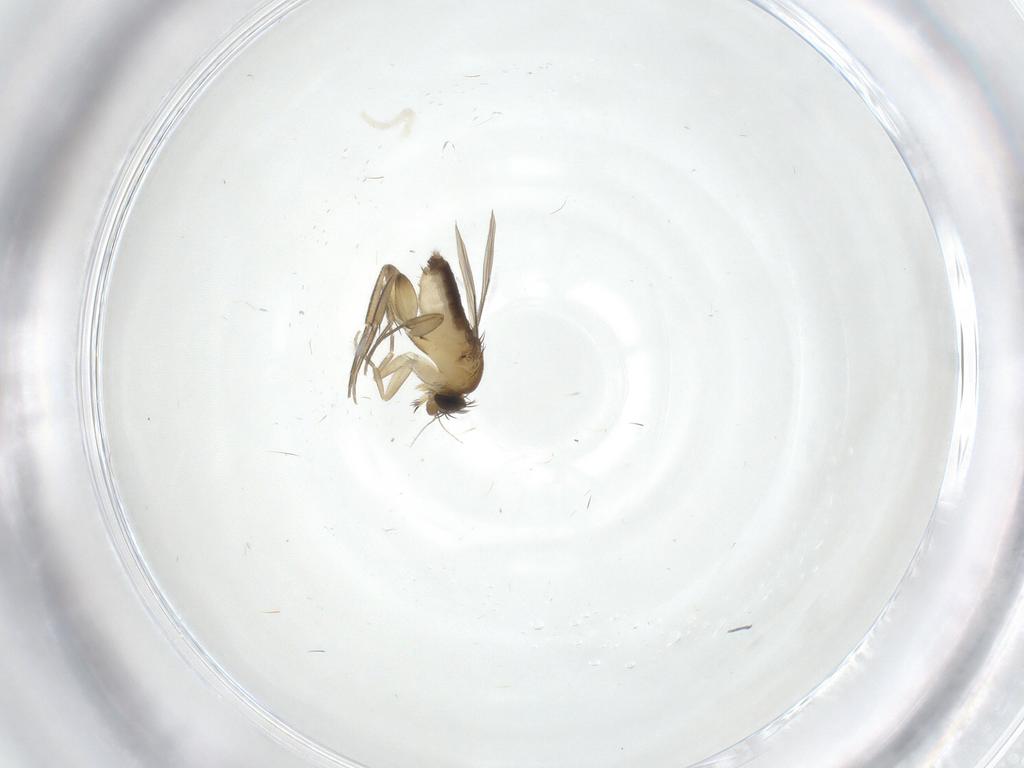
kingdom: Animalia
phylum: Arthropoda
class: Insecta
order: Diptera
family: Phoridae
